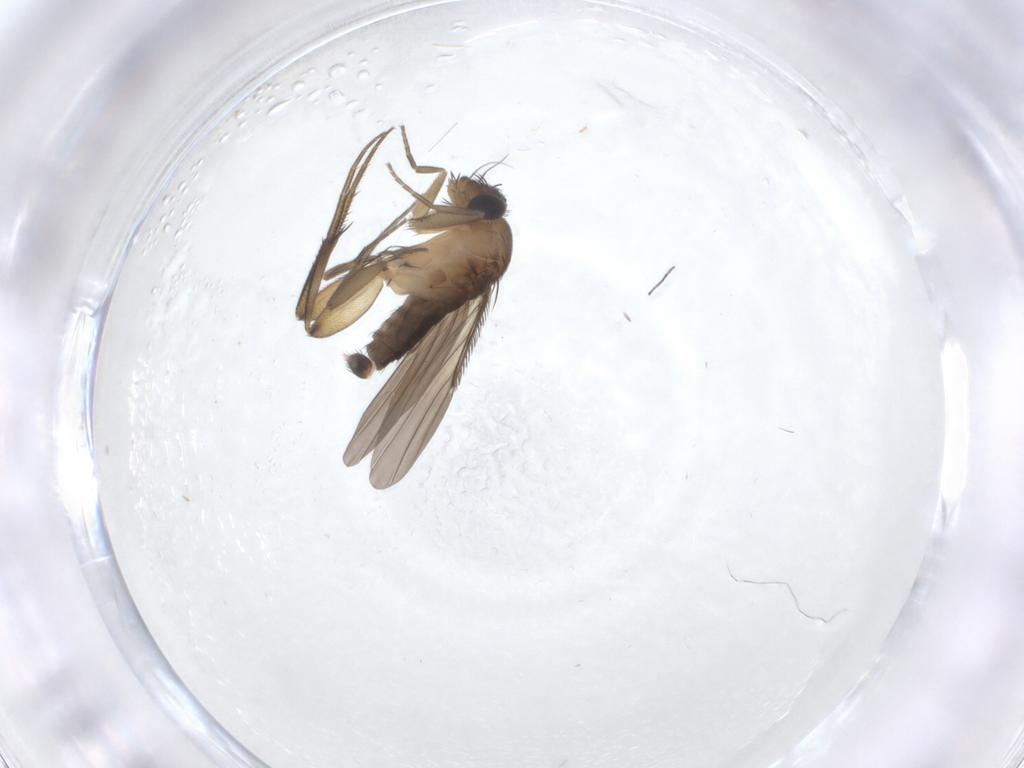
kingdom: Animalia
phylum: Arthropoda
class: Insecta
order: Diptera
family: Phoridae
